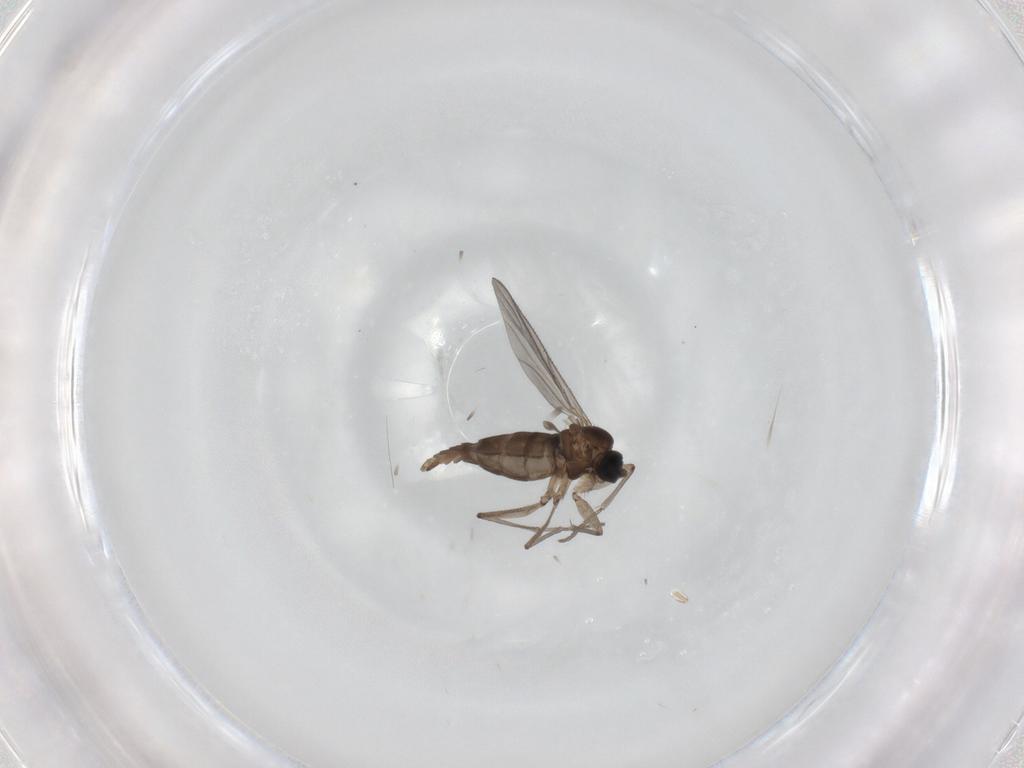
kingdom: Animalia
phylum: Arthropoda
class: Insecta
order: Diptera
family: Sciaridae
